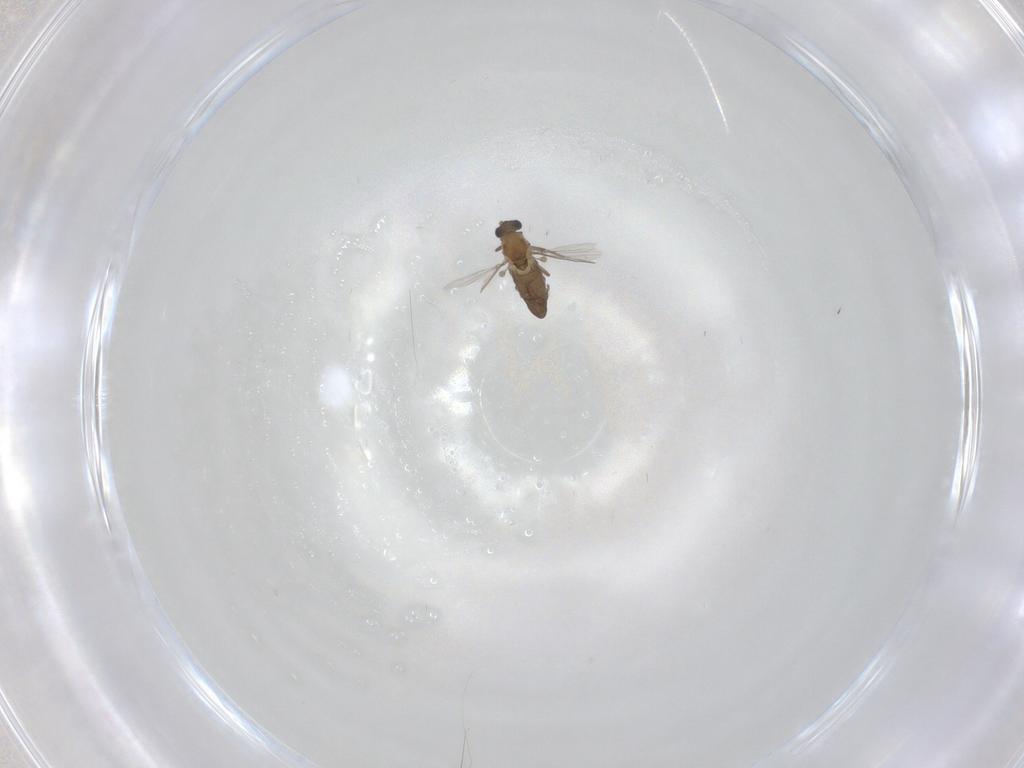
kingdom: Animalia
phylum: Arthropoda
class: Insecta
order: Diptera
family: Chironomidae
